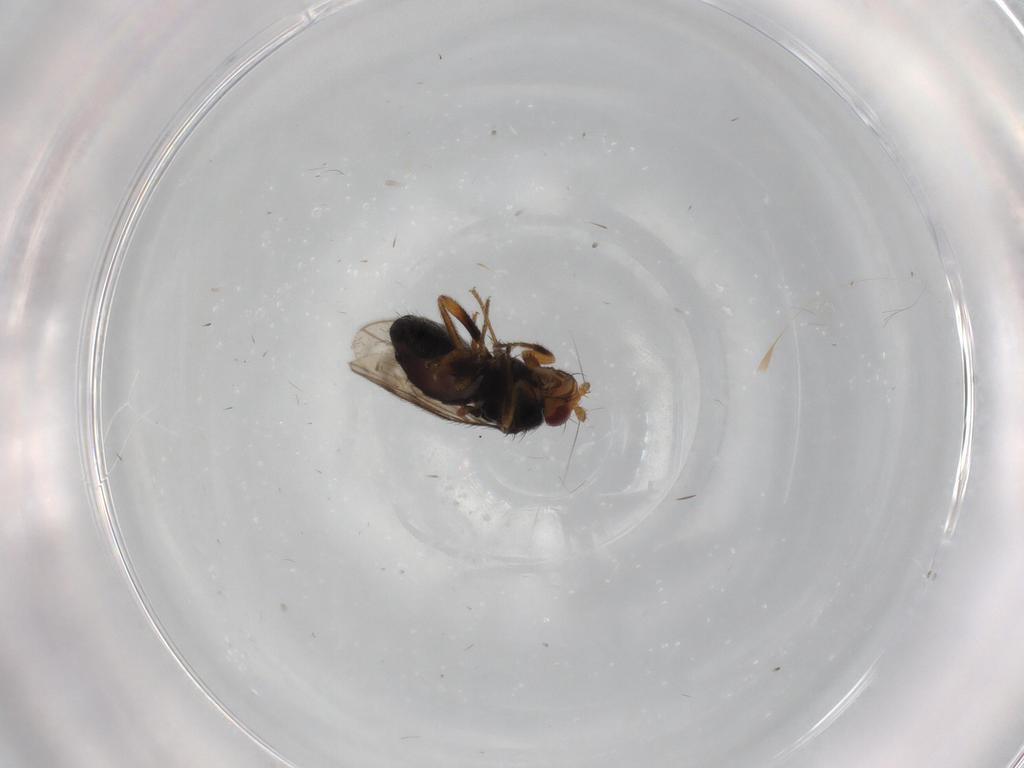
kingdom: Animalia
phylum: Arthropoda
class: Insecta
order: Diptera
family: Sphaeroceridae
